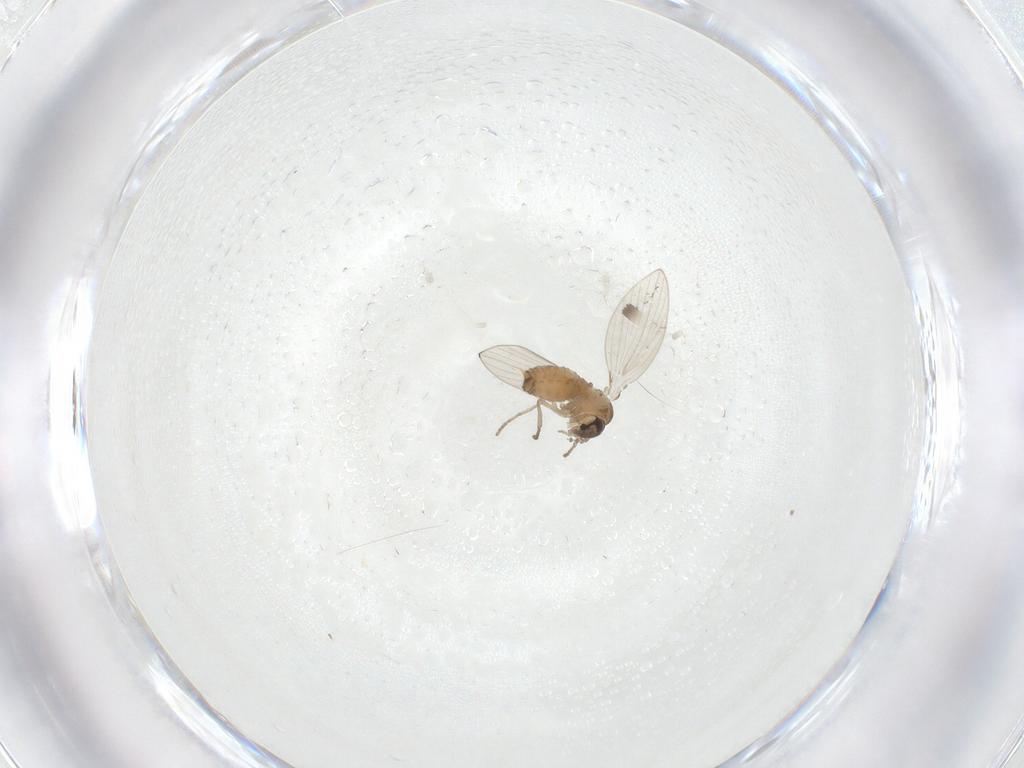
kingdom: Animalia
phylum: Arthropoda
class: Insecta
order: Diptera
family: Psychodidae
